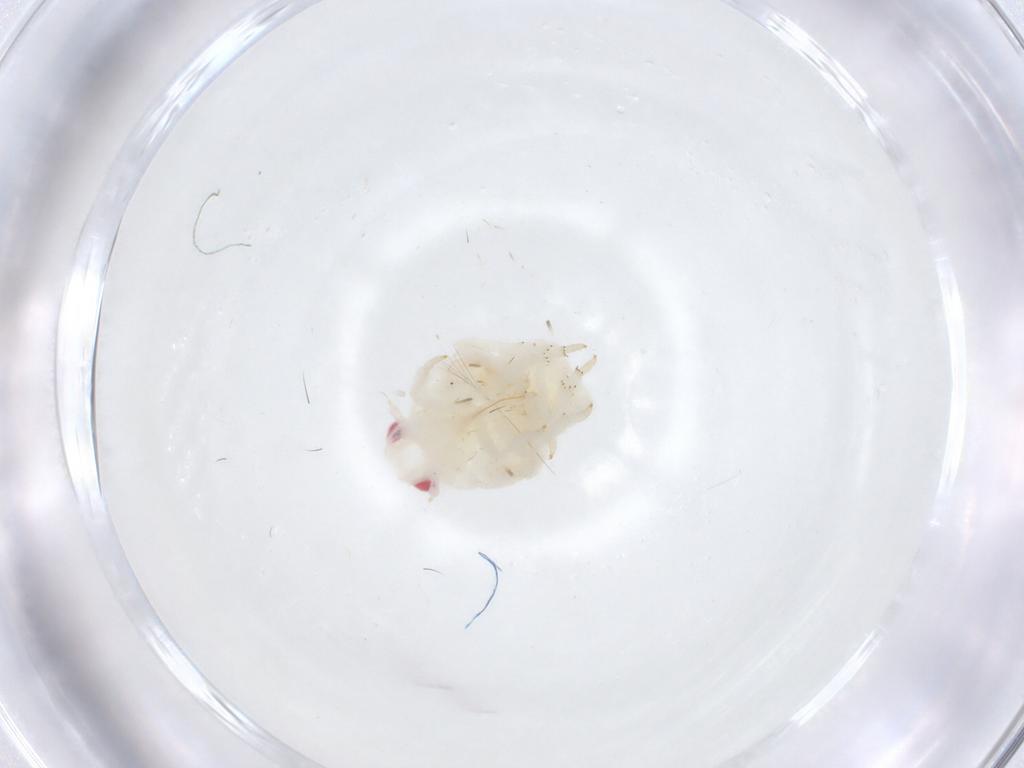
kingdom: Animalia
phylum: Arthropoda
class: Insecta
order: Hemiptera
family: Flatidae
